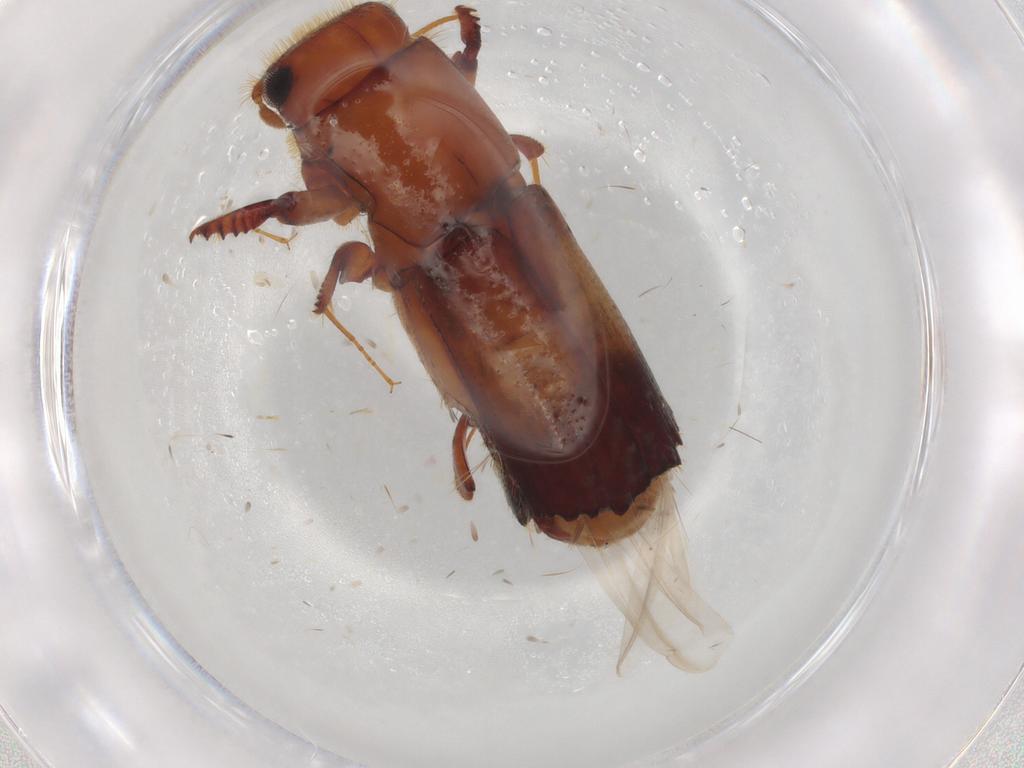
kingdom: Animalia
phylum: Arthropoda
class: Insecta
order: Coleoptera
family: Curculionidae
